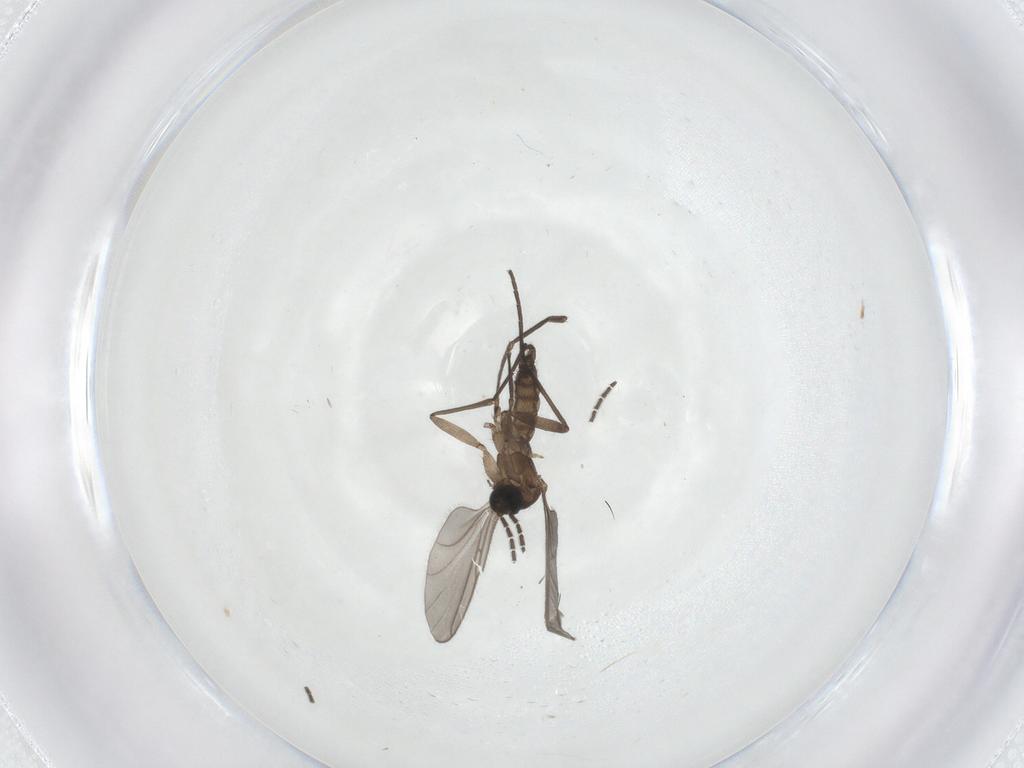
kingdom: Animalia
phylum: Arthropoda
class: Insecta
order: Diptera
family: Sphaeroceridae
